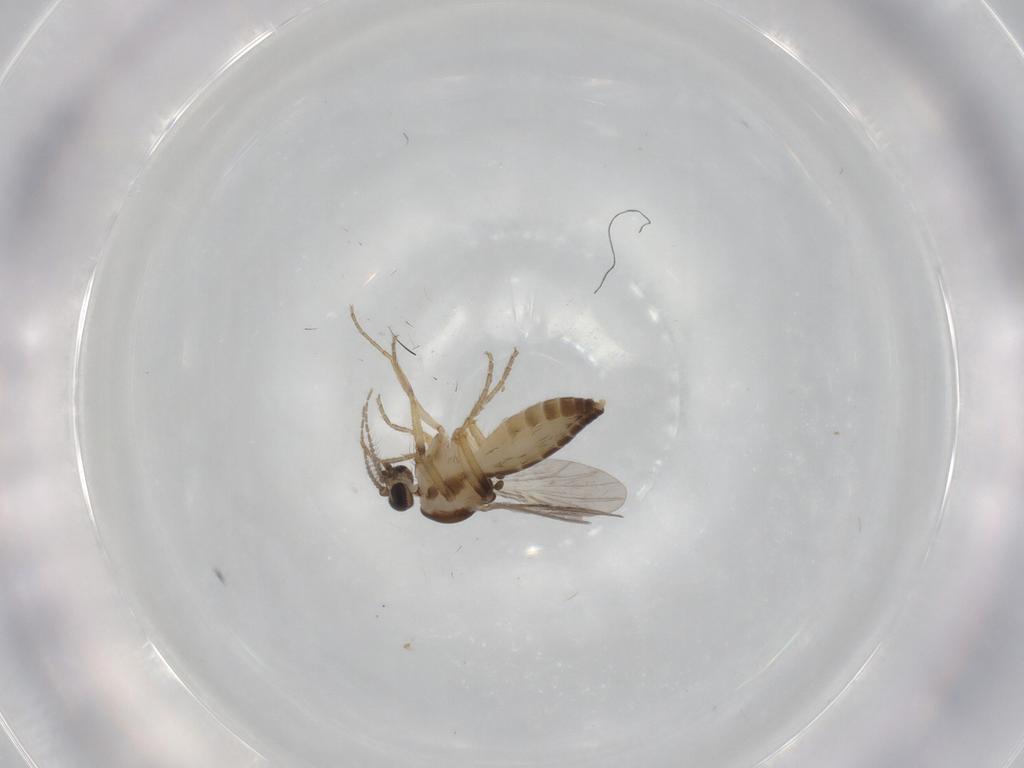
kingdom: Animalia
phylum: Arthropoda
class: Insecta
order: Diptera
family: Ceratopogonidae
